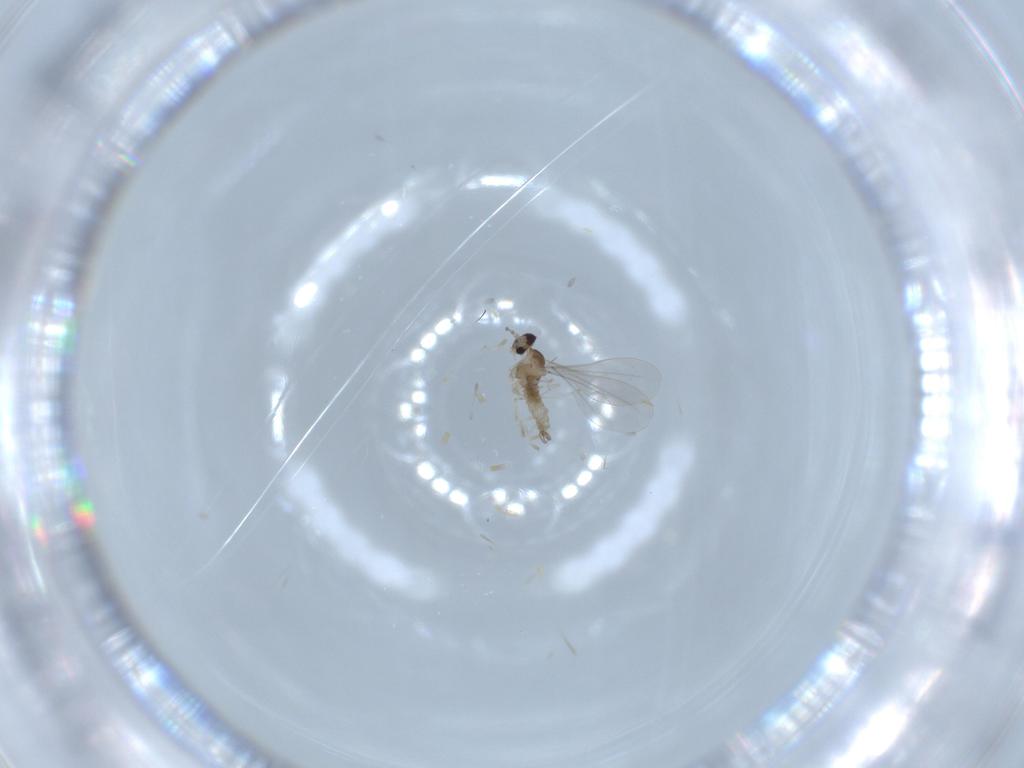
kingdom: Animalia
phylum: Arthropoda
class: Insecta
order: Diptera
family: Cecidomyiidae
